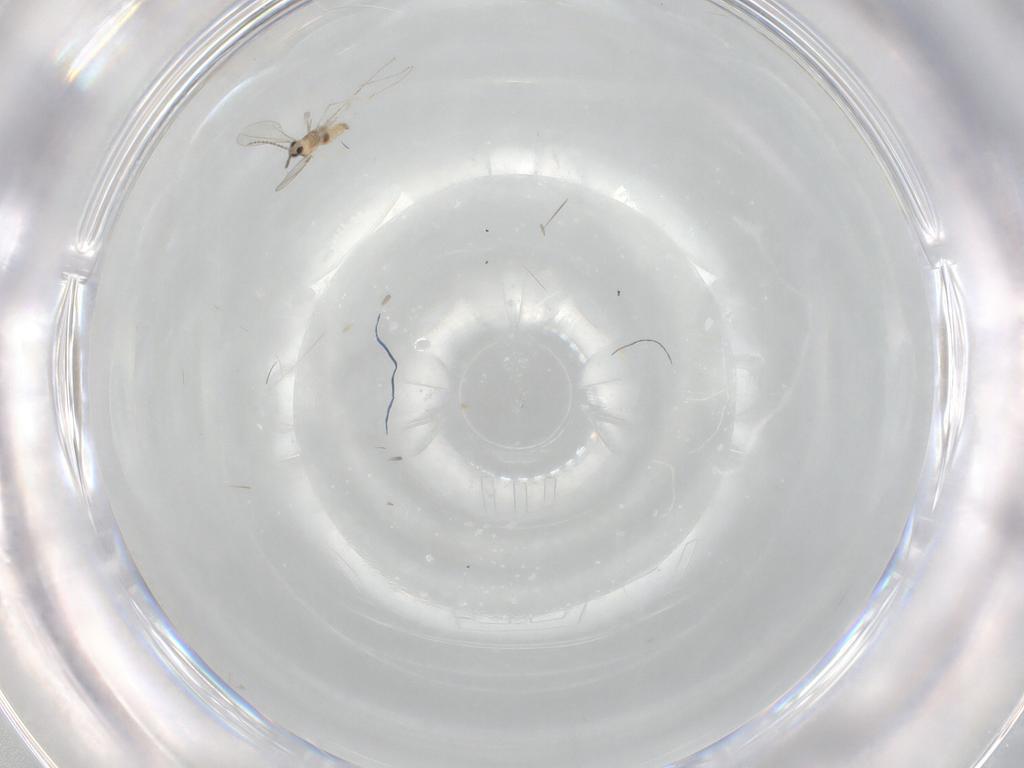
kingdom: Animalia
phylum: Arthropoda
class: Insecta
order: Diptera
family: Cecidomyiidae
